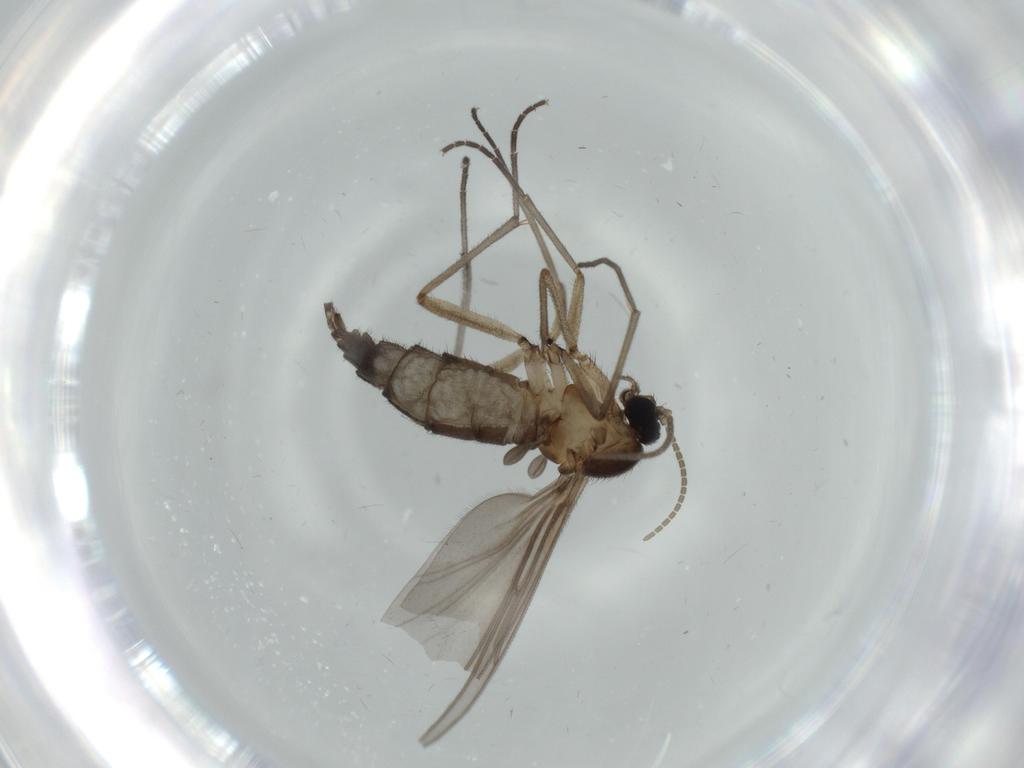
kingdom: Animalia
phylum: Arthropoda
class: Insecta
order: Diptera
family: Sciaridae
